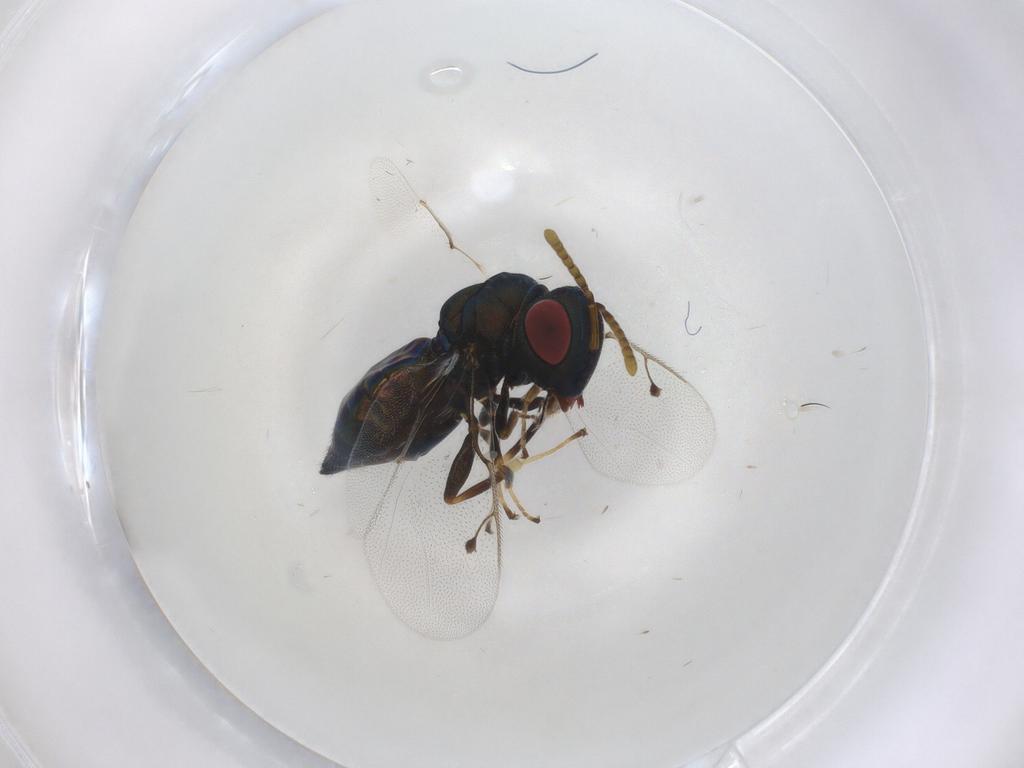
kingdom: Animalia
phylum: Arthropoda
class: Insecta
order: Hymenoptera
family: Pteromalidae
